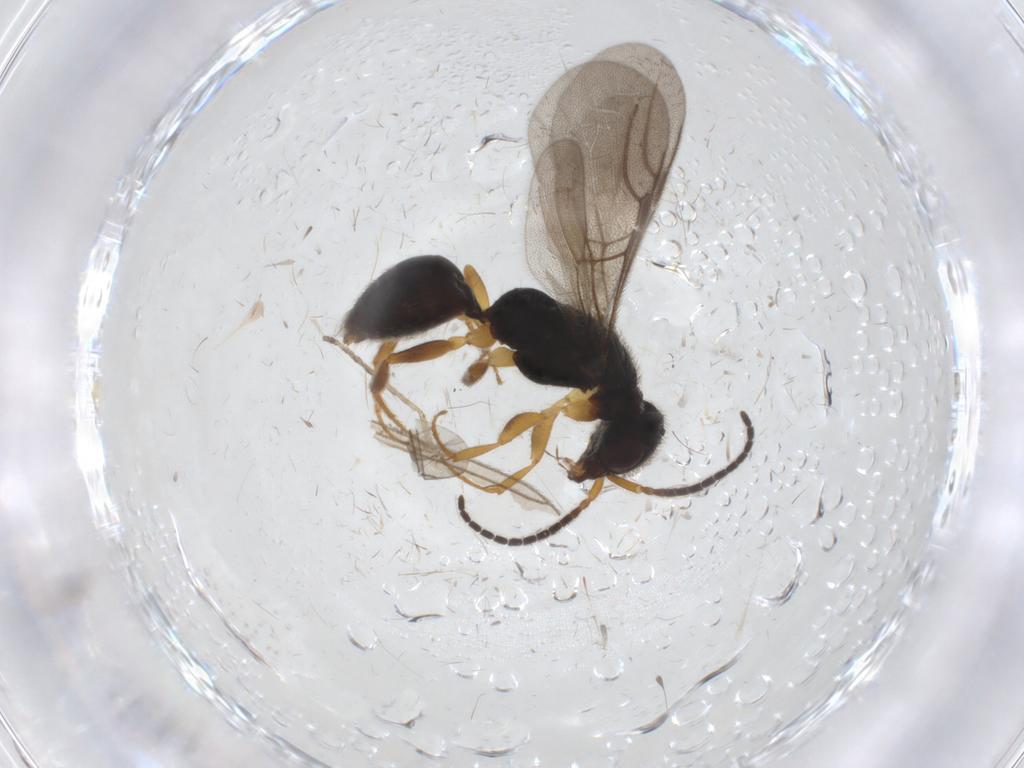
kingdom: Animalia
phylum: Arthropoda
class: Insecta
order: Hymenoptera
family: Bethylidae
